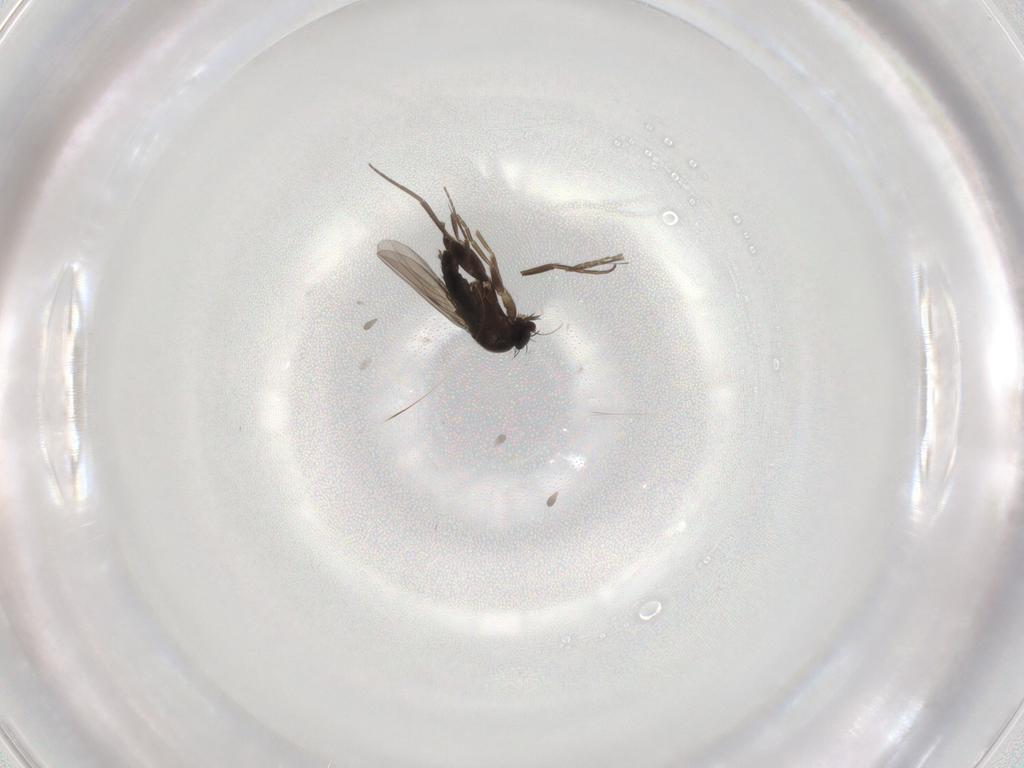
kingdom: Animalia
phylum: Arthropoda
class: Insecta
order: Diptera
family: Phoridae
